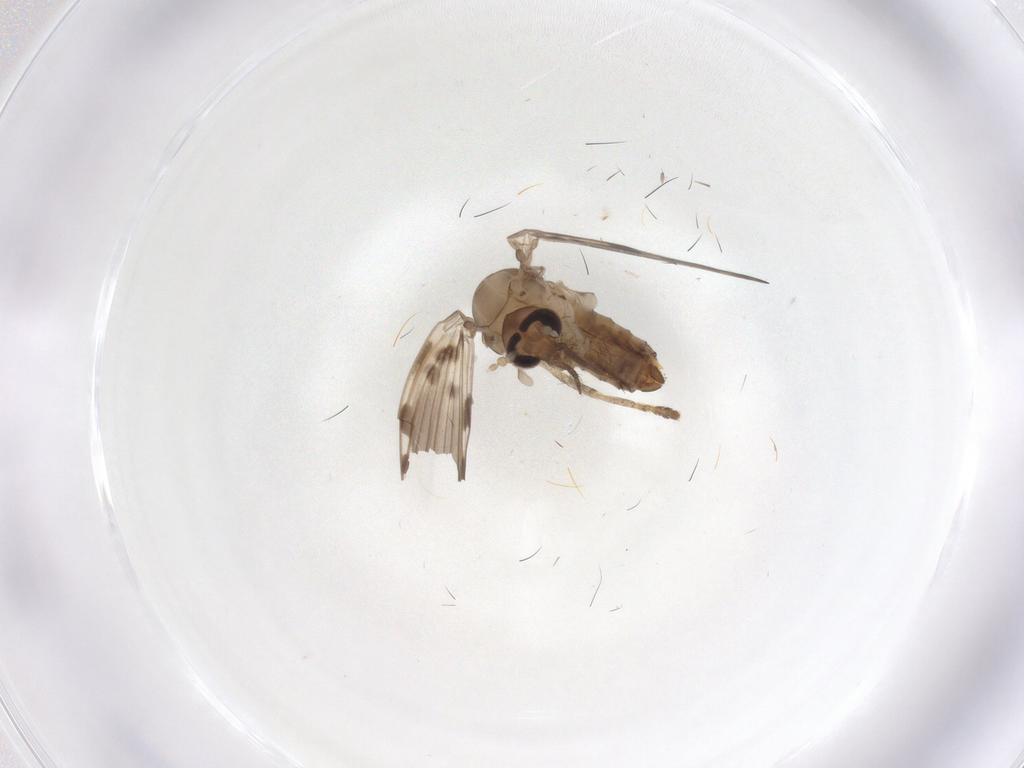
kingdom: Animalia
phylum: Arthropoda
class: Insecta
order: Diptera
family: Psychodidae
